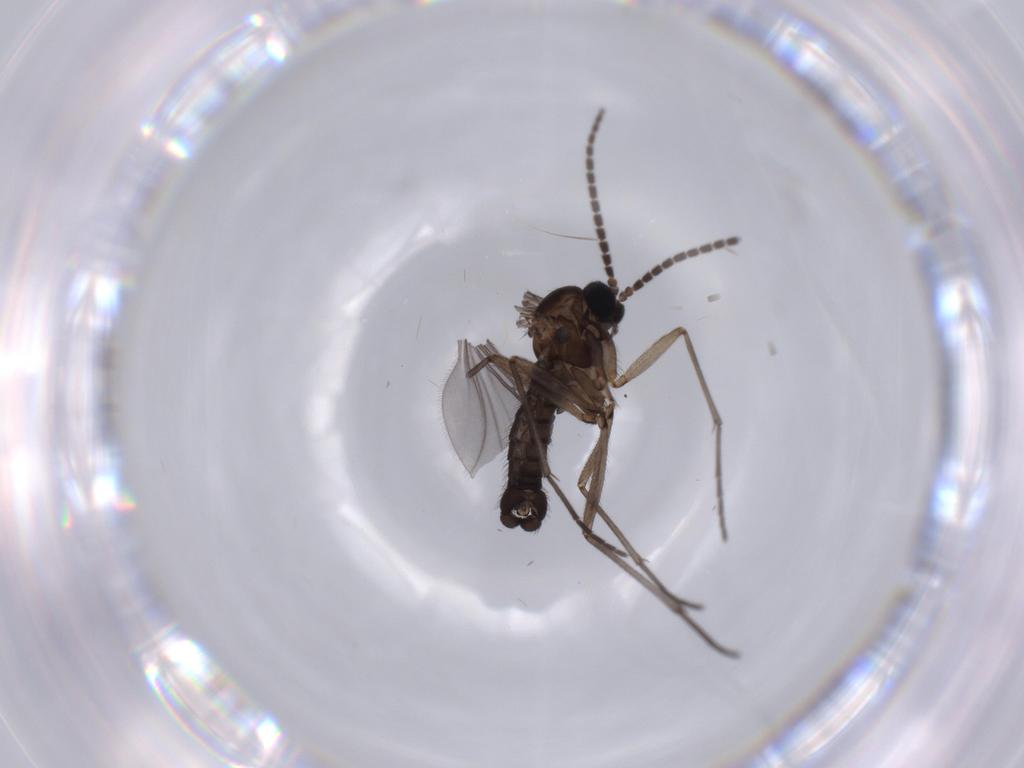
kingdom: Animalia
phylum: Arthropoda
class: Insecta
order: Diptera
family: Sciaridae
